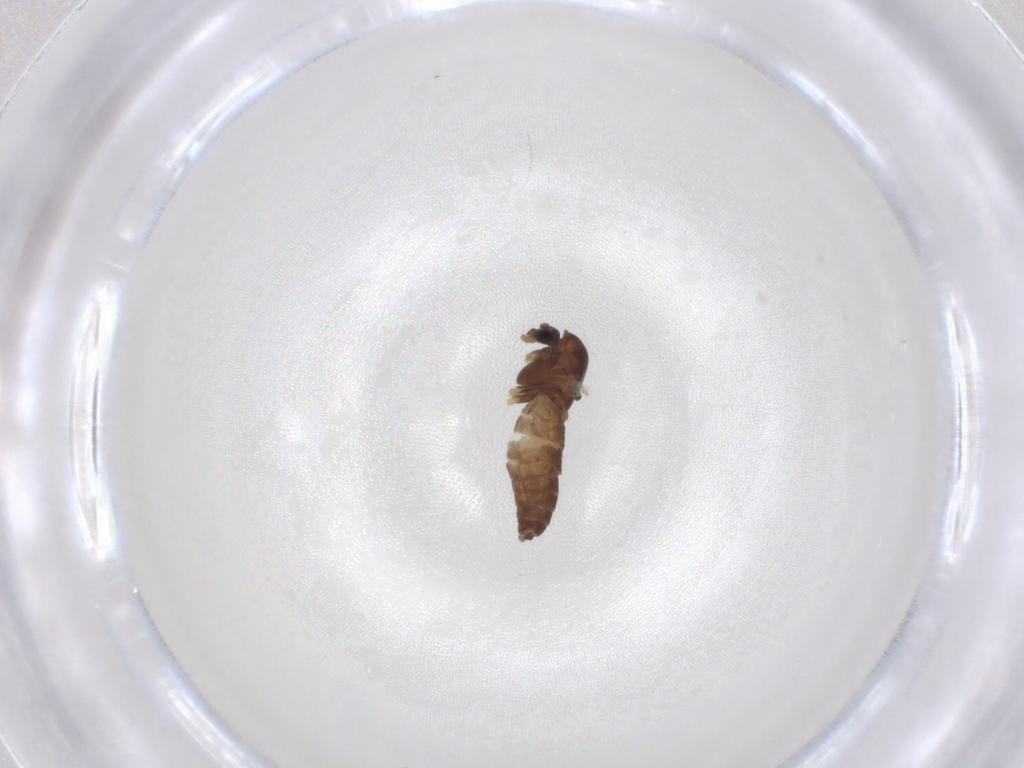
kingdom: Animalia
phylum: Arthropoda
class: Insecta
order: Diptera
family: Chironomidae
